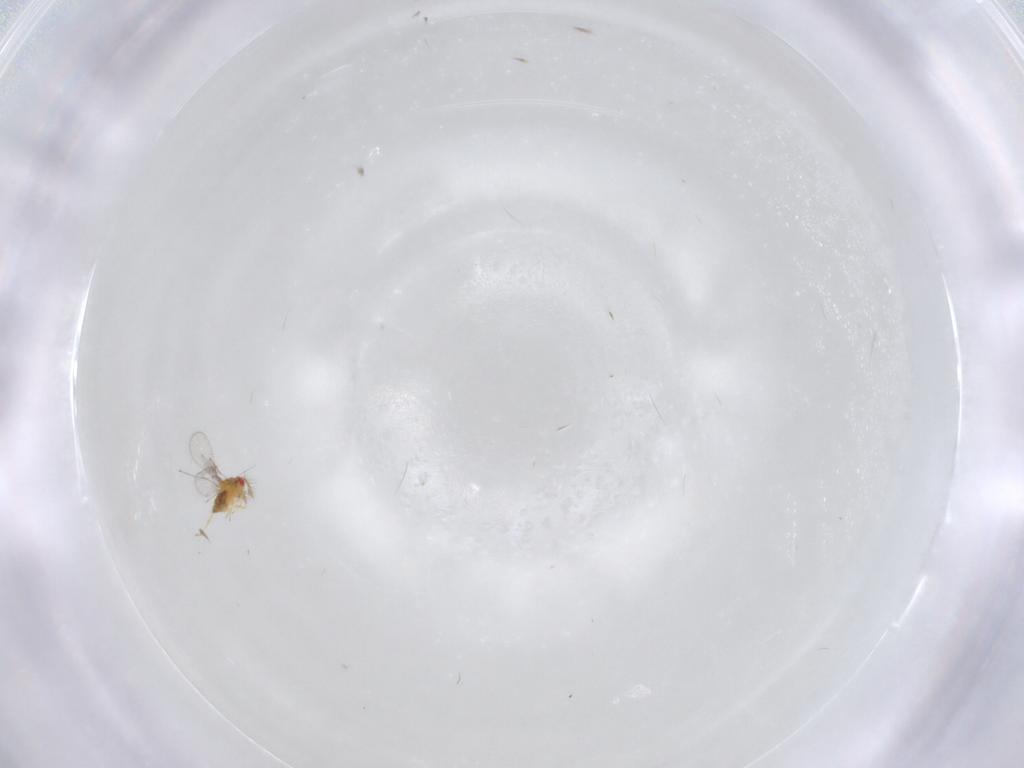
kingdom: Animalia
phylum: Arthropoda
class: Insecta
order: Hymenoptera
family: Trichogrammatidae
